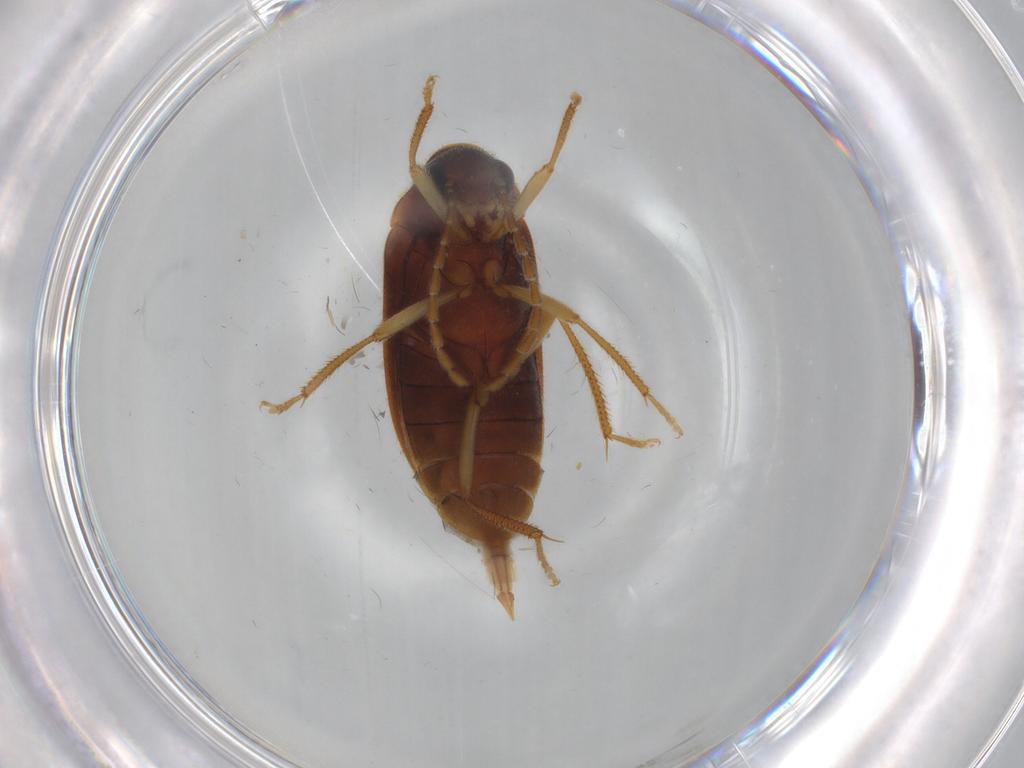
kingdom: Animalia
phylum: Arthropoda
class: Insecta
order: Coleoptera
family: Ptilodactylidae
